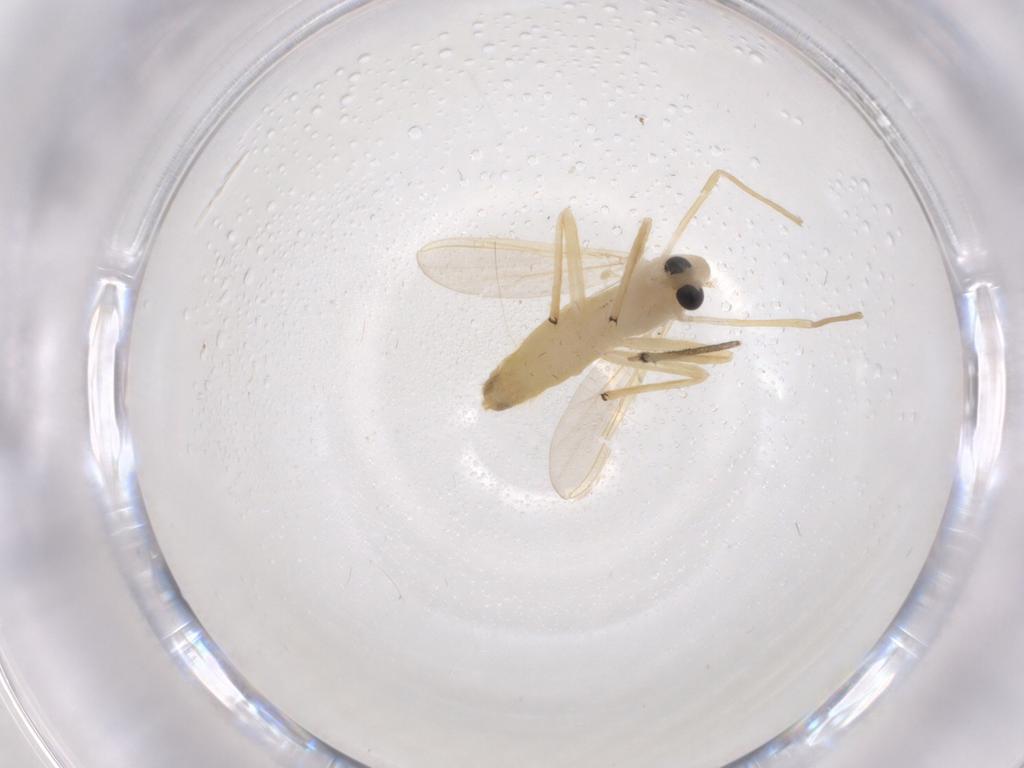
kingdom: Animalia
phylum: Arthropoda
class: Insecta
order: Diptera
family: Chironomidae
